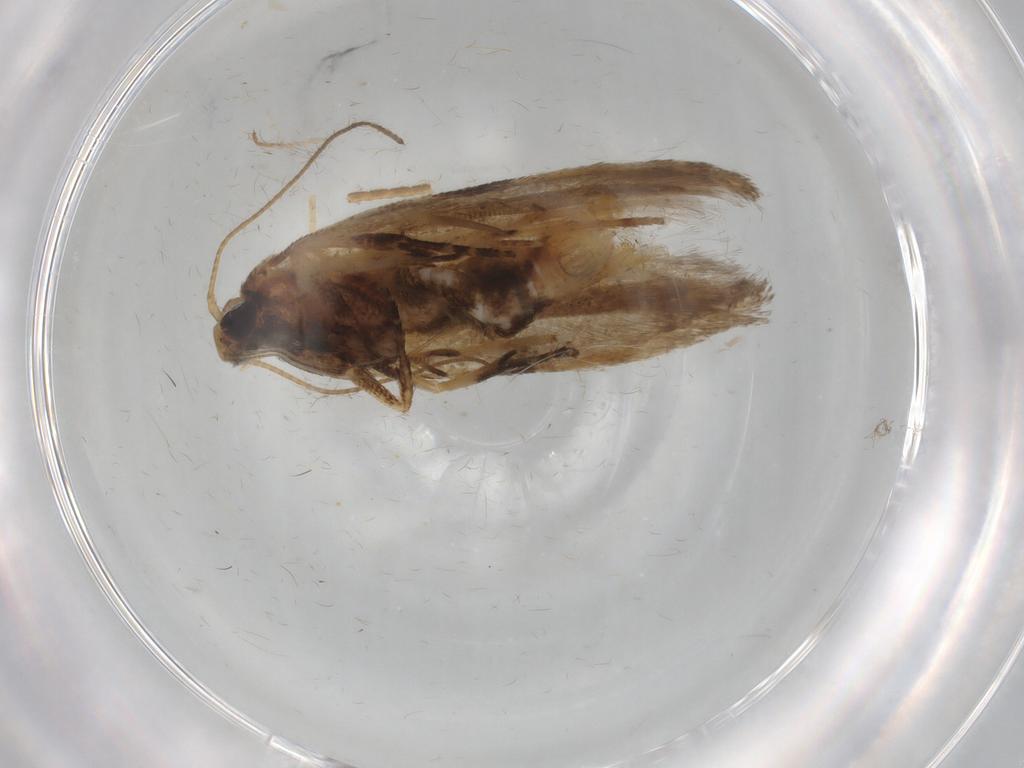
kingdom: Animalia
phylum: Arthropoda
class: Insecta
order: Lepidoptera
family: Gelechiidae
